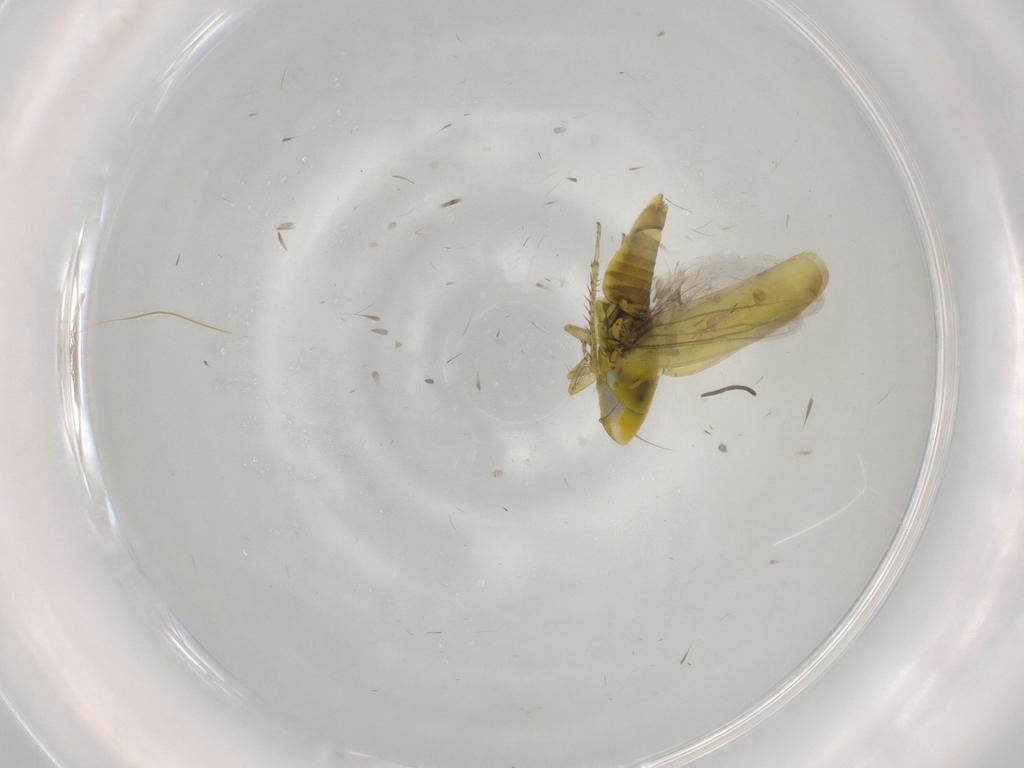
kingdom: Animalia
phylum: Arthropoda
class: Insecta
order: Hemiptera
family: Cicadellidae
